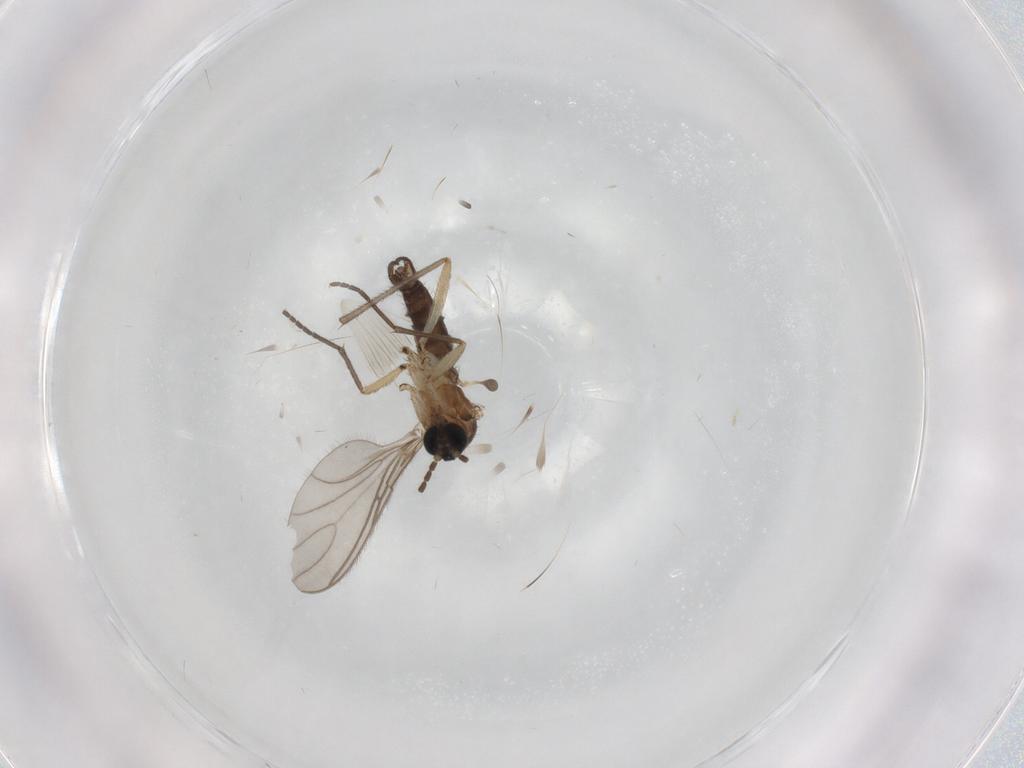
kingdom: Animalia
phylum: Arthropoda
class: Insecta
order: Diptera
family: Sciaridae
